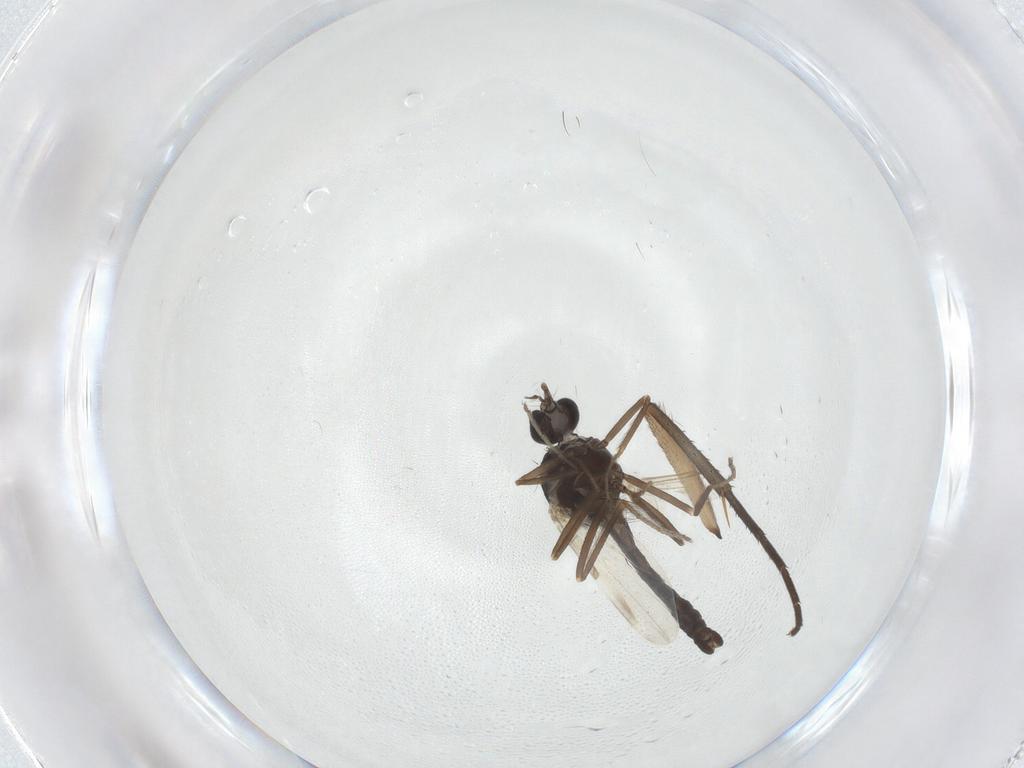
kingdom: Animalia
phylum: Arthropoda
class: Insecta
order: Diptera
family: Ceratopogonidae
